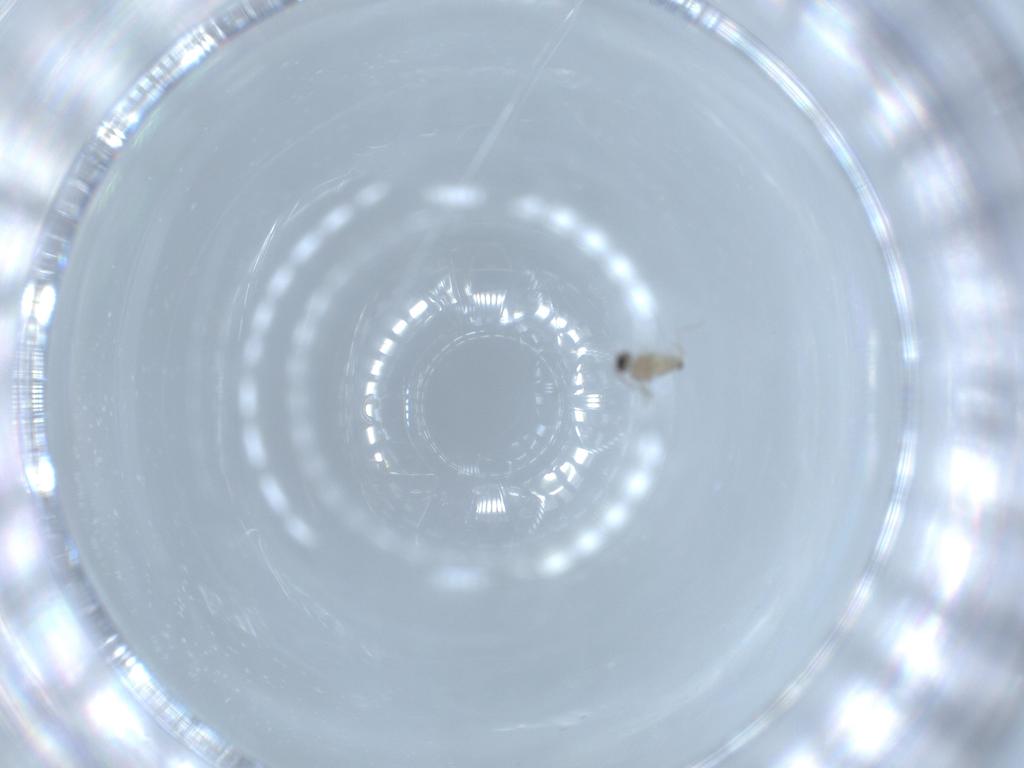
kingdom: Animalia
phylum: Arthropoda
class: Insecta
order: Diptera
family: Cecidomyiidae
